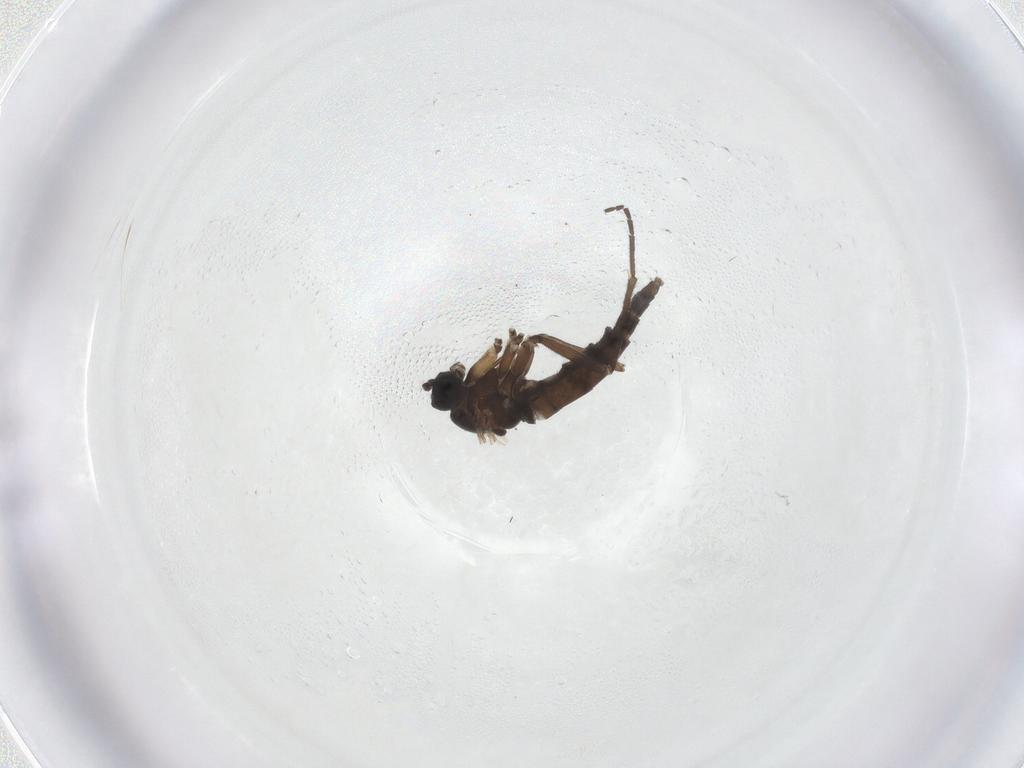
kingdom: Animalia
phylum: Arthropoda
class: Insecta
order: Diptera
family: Sciaridae
